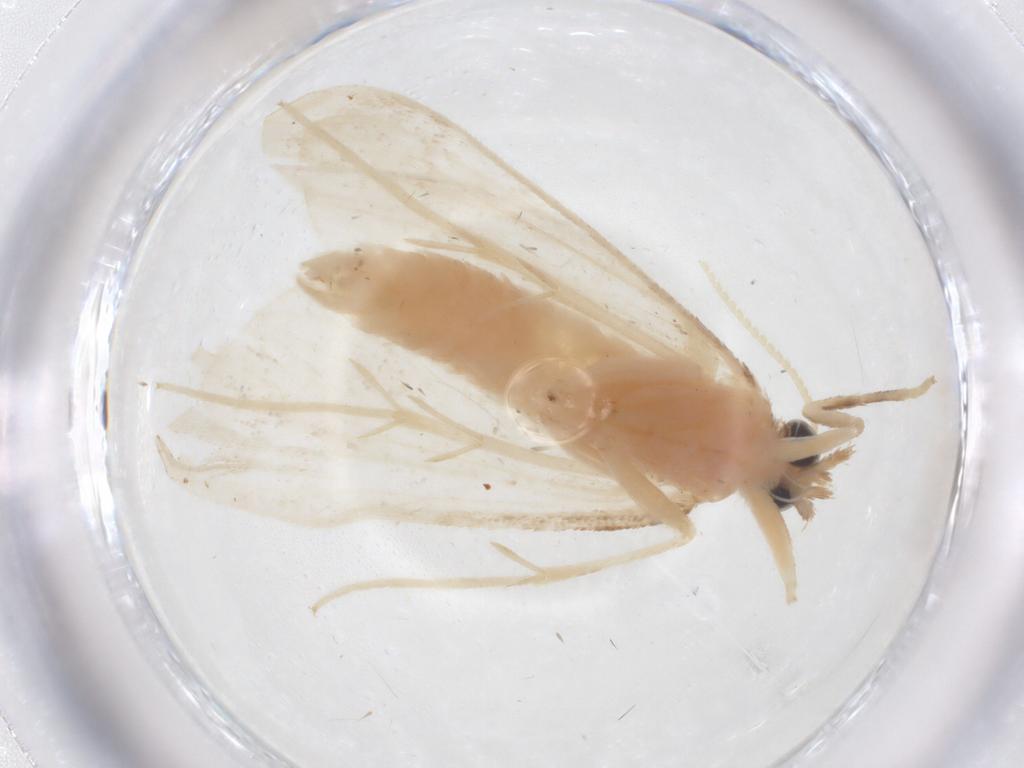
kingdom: Animalia
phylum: Arthropoda
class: Insecta
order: Lepidoptera
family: Crambidae
